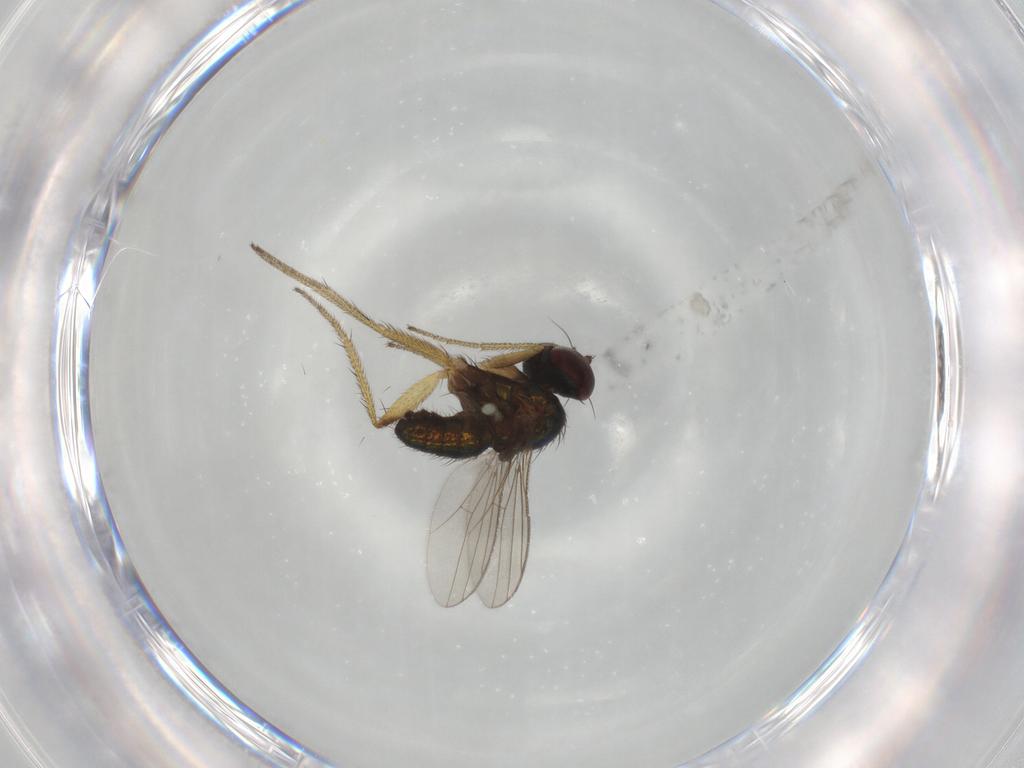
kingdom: Animalia
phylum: Arthropoda
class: Insecta
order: Diptera
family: Dolichopodidae
